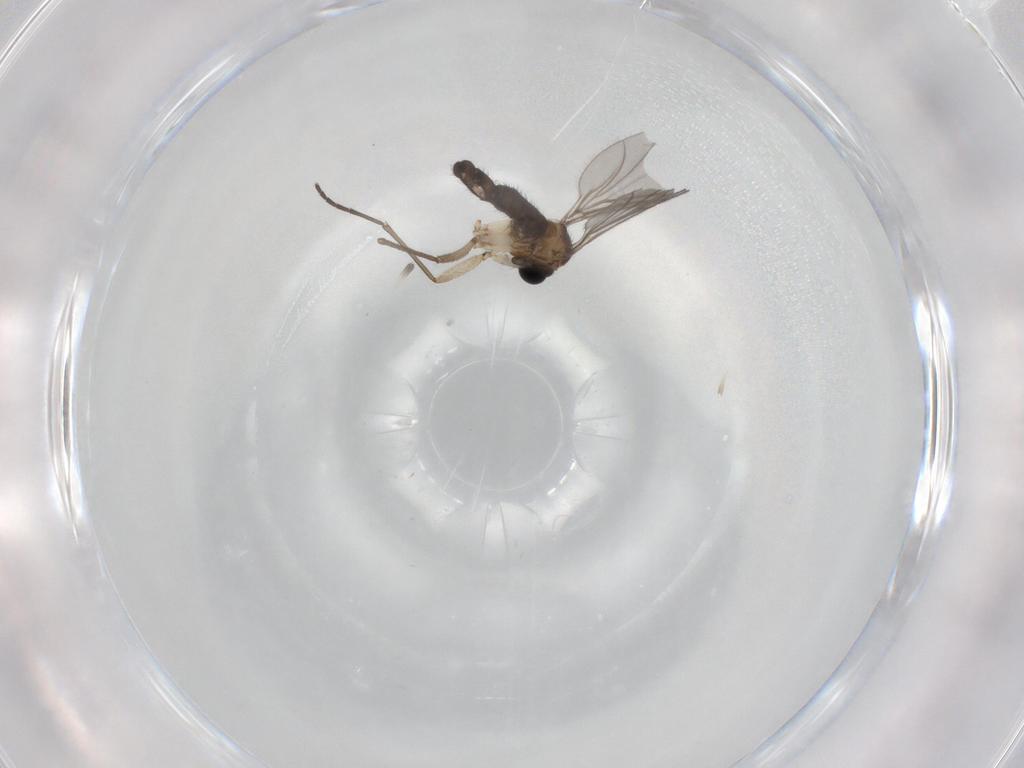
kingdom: Animalia
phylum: Arthropoda
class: Insecta
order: Diptera
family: Sciaridae
